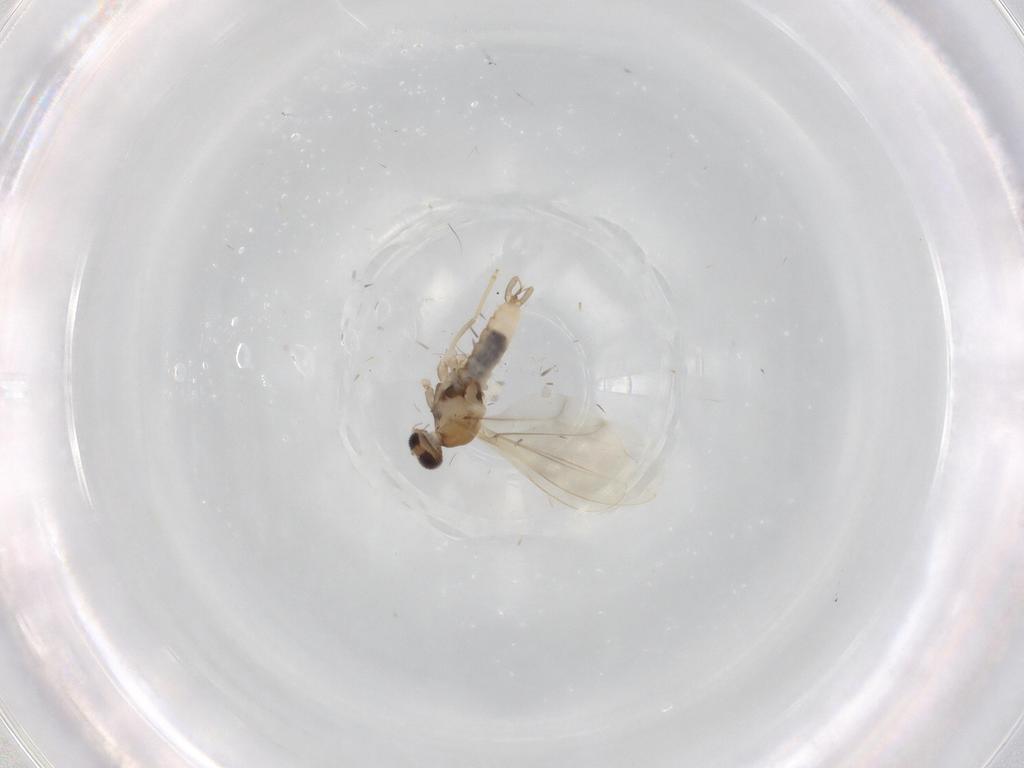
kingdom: Animalia
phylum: Arthropoda
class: Insecta
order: Diptera
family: Cecidomyiidae
